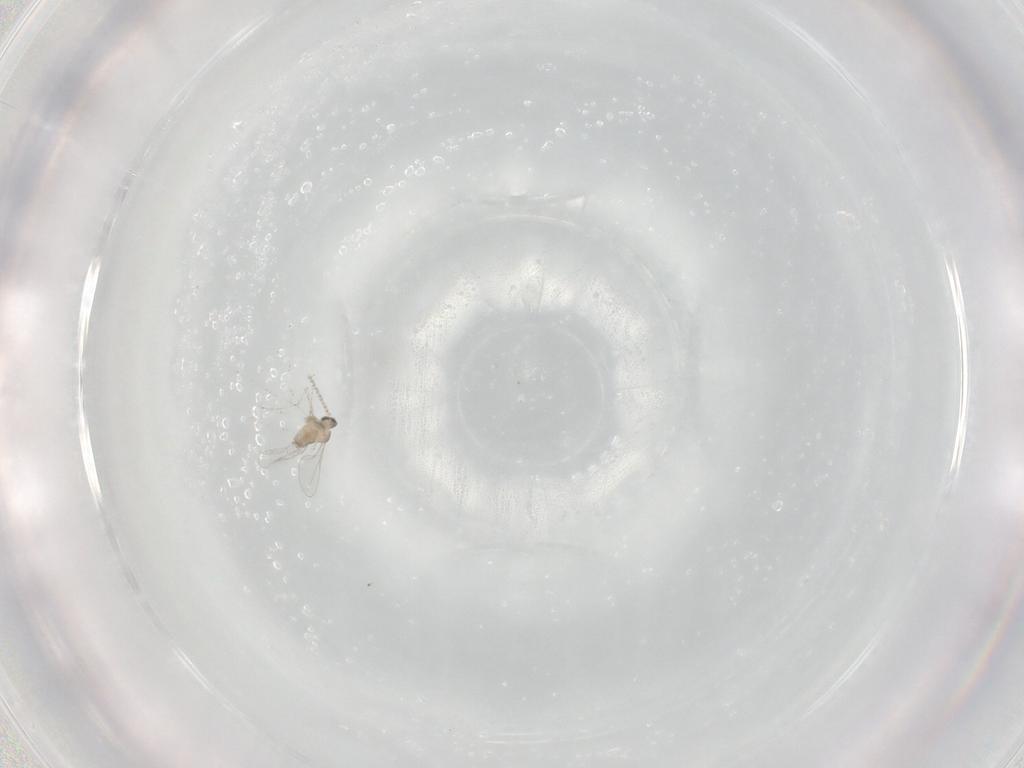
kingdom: Animalia
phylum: Arthropoda
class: Insecta
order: Diptera
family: Cecidomyiidae
